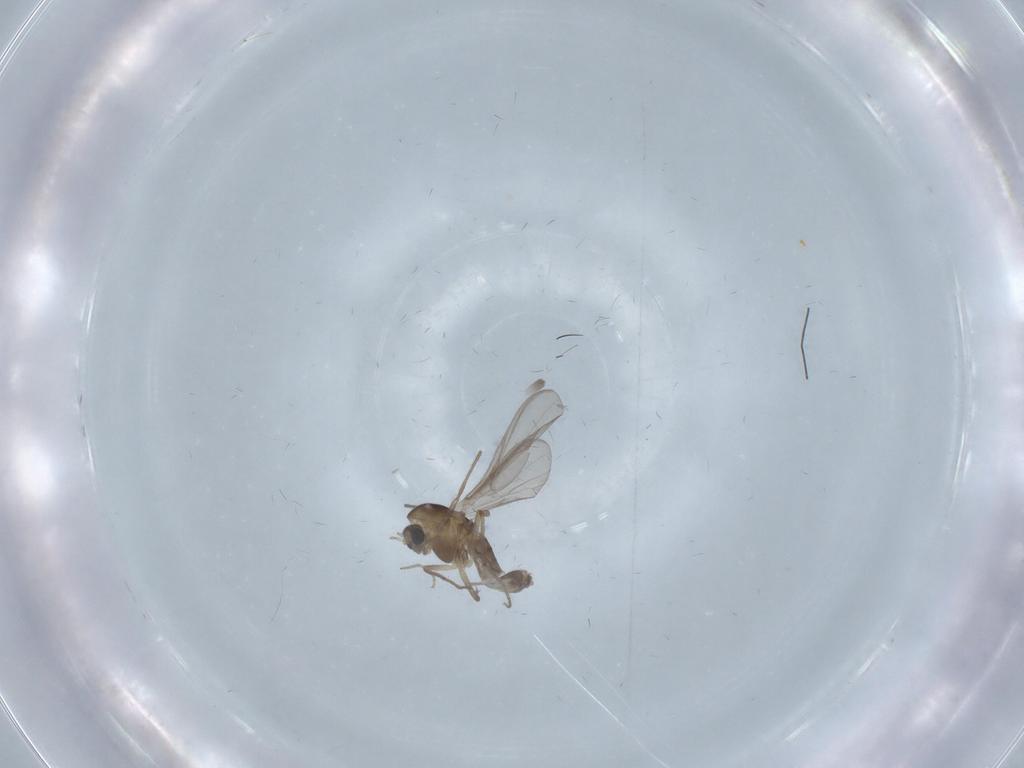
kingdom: Animalia
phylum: Arthropoda
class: Insecta
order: Diptera
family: Chironomidae
